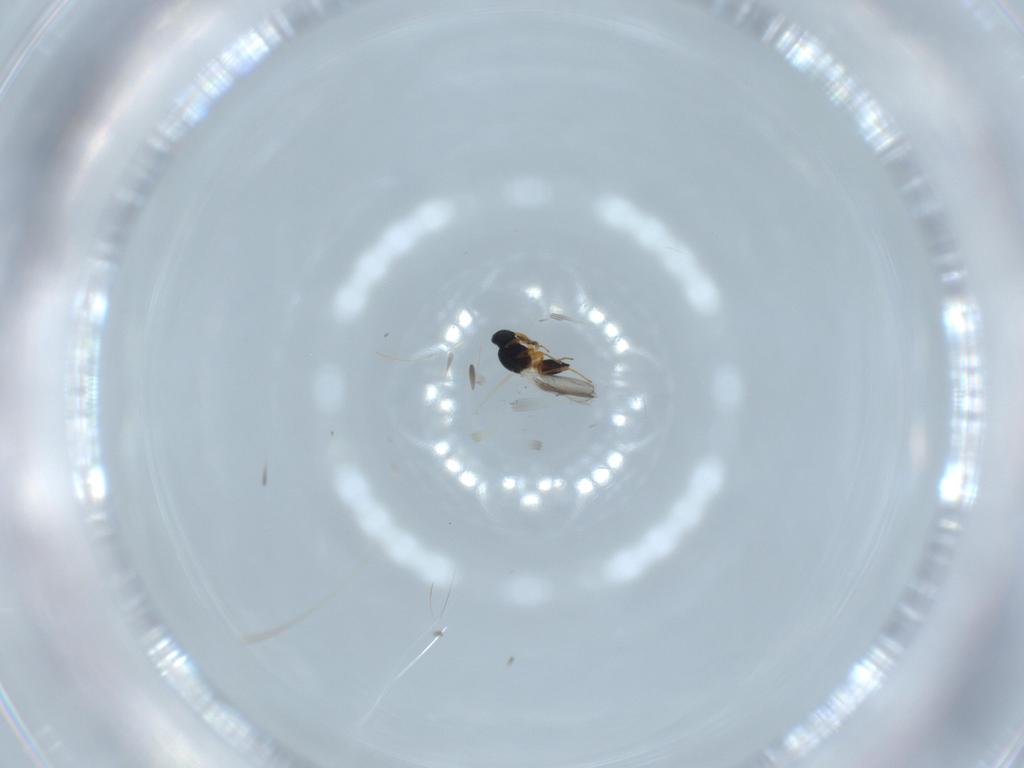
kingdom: Animalia
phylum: Arthropoda
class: Insecta
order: Hymenoptera
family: Platygastridae
